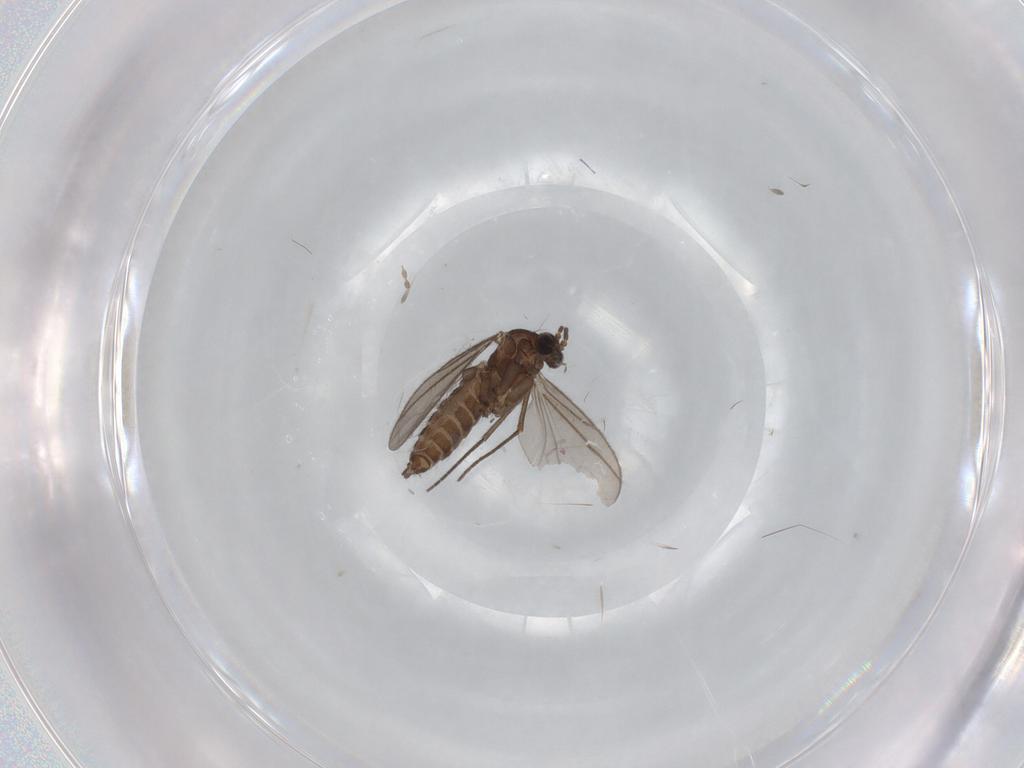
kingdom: Animalia
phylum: Arthropoda
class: Insecta
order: Diptera
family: Sciaridae
